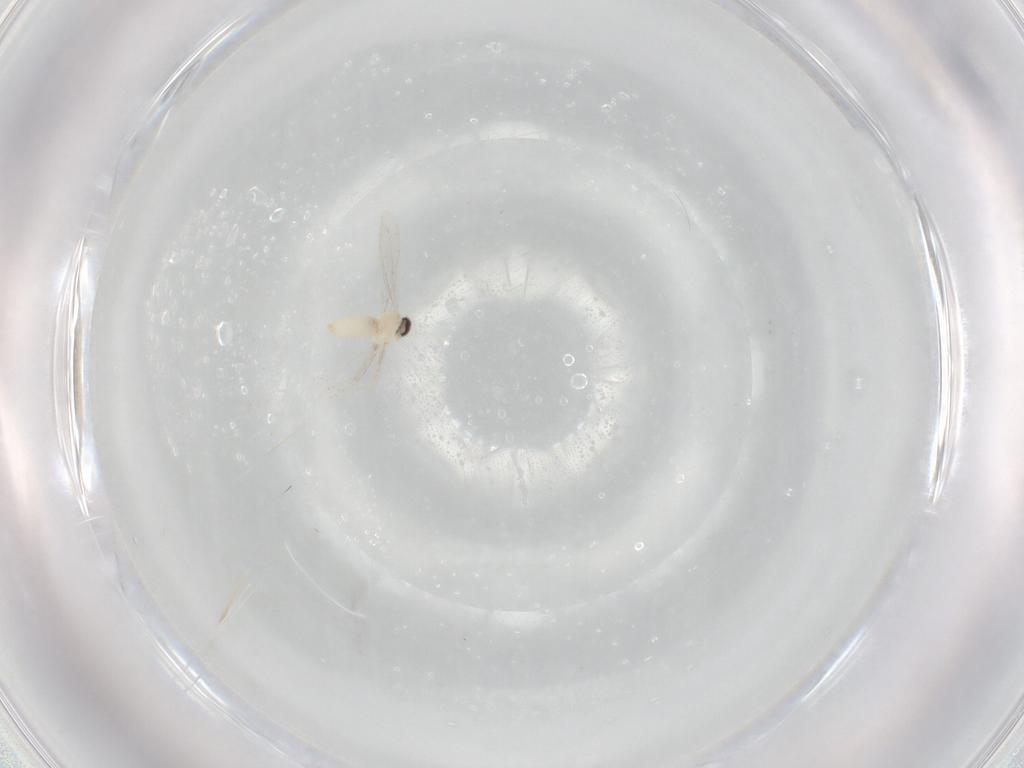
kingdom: Animalia
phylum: Arthropoda
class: Insecta
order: Diptera
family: Cecidomyiidae
